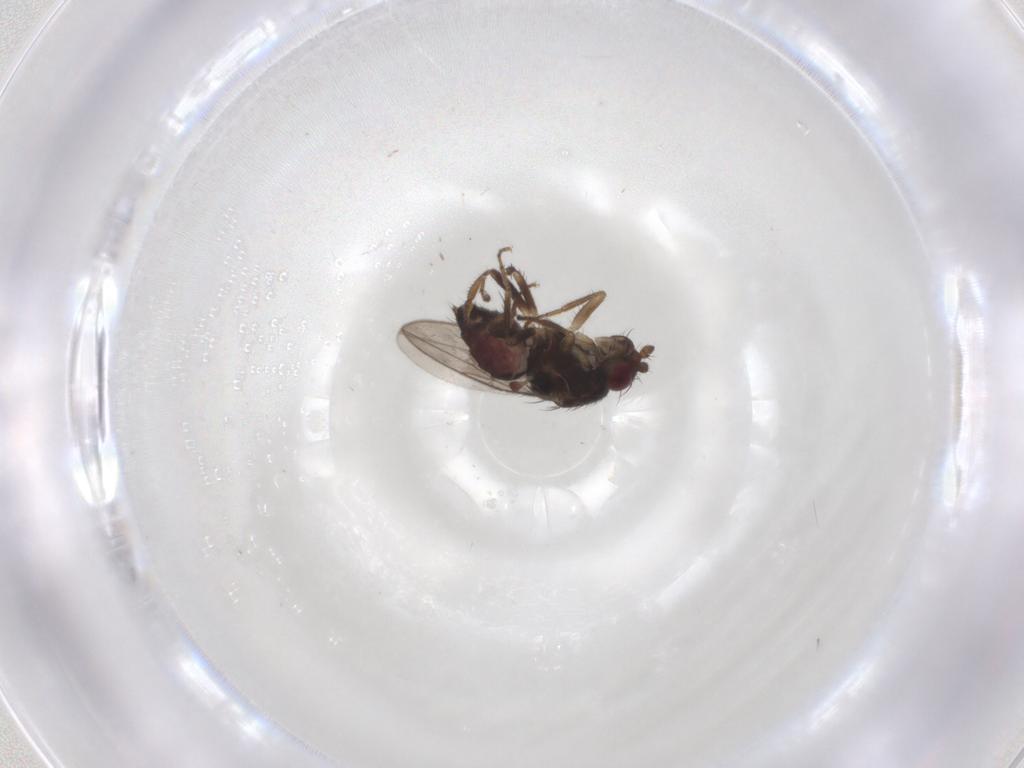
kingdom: Animalia
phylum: Arthropoda
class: Insecta
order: Diptera
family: Sphaeroceridae
